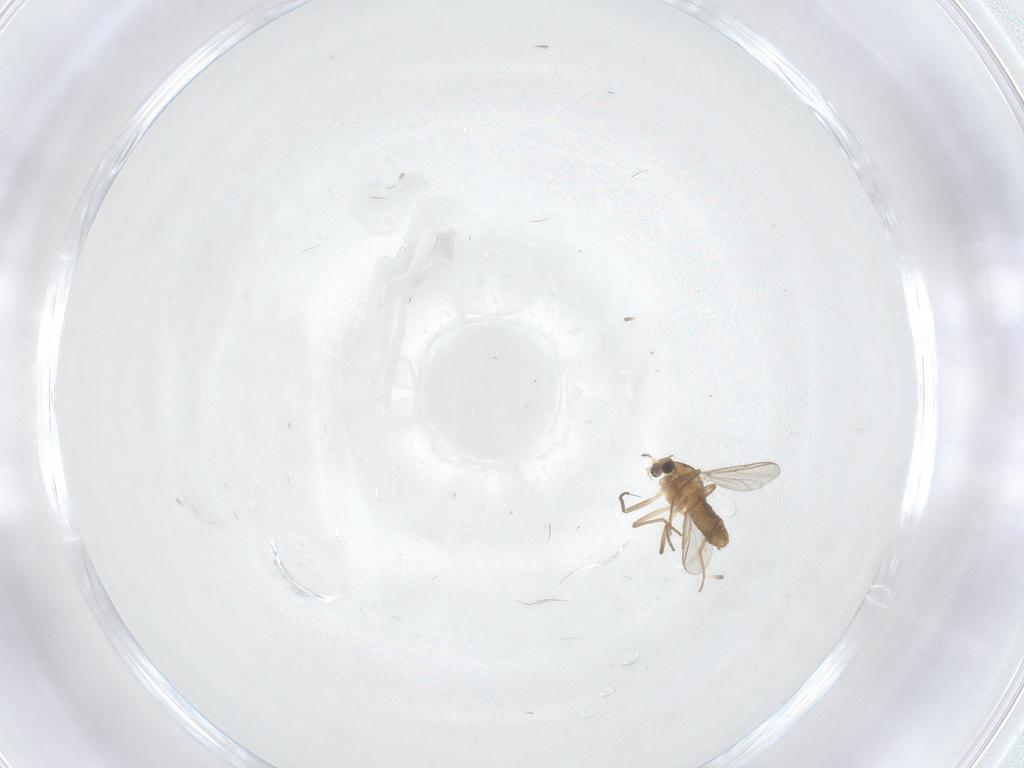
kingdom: Animalia
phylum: Arthropoda
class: Insecta
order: Diptera
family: Chironomidae
